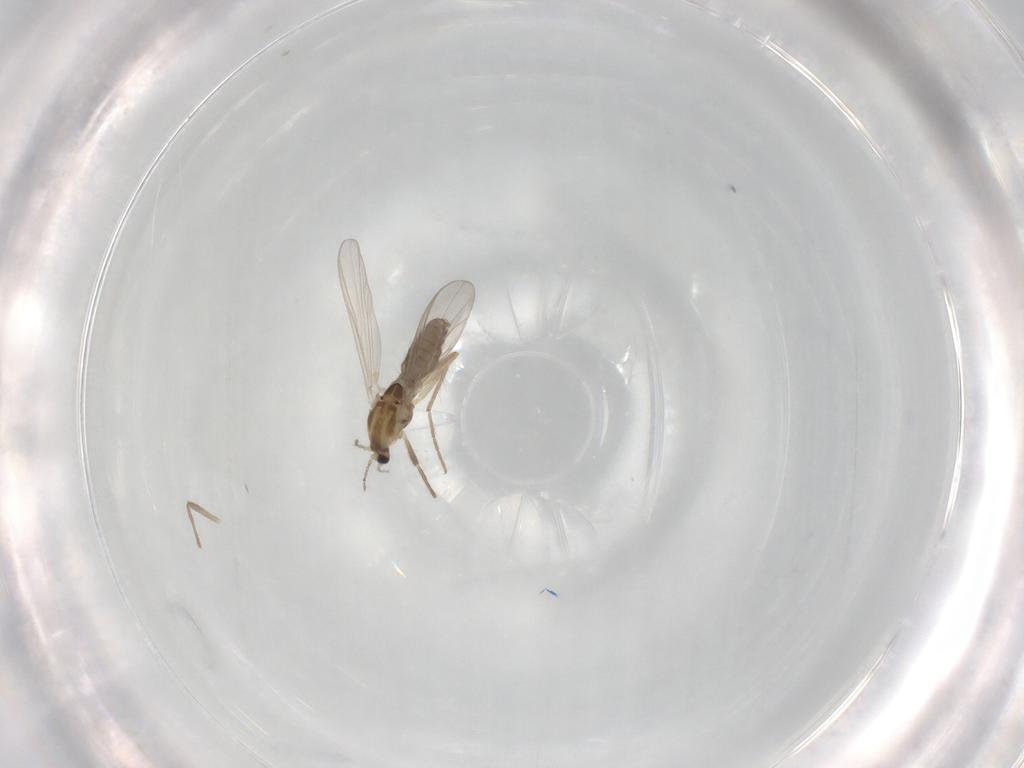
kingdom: Animalia
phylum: Arthropoda
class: Insecta
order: Diptera
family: Chironomidae
